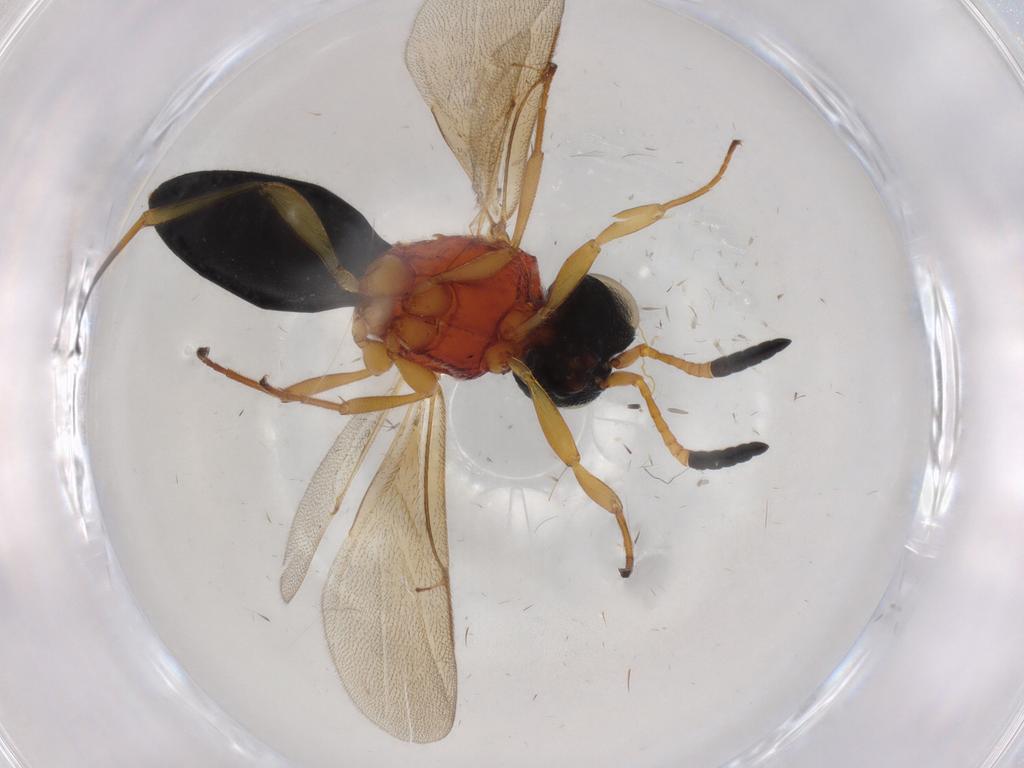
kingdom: Animalia
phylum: Arthropoda
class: Insecta
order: Hymenoptera
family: Scelionidae
